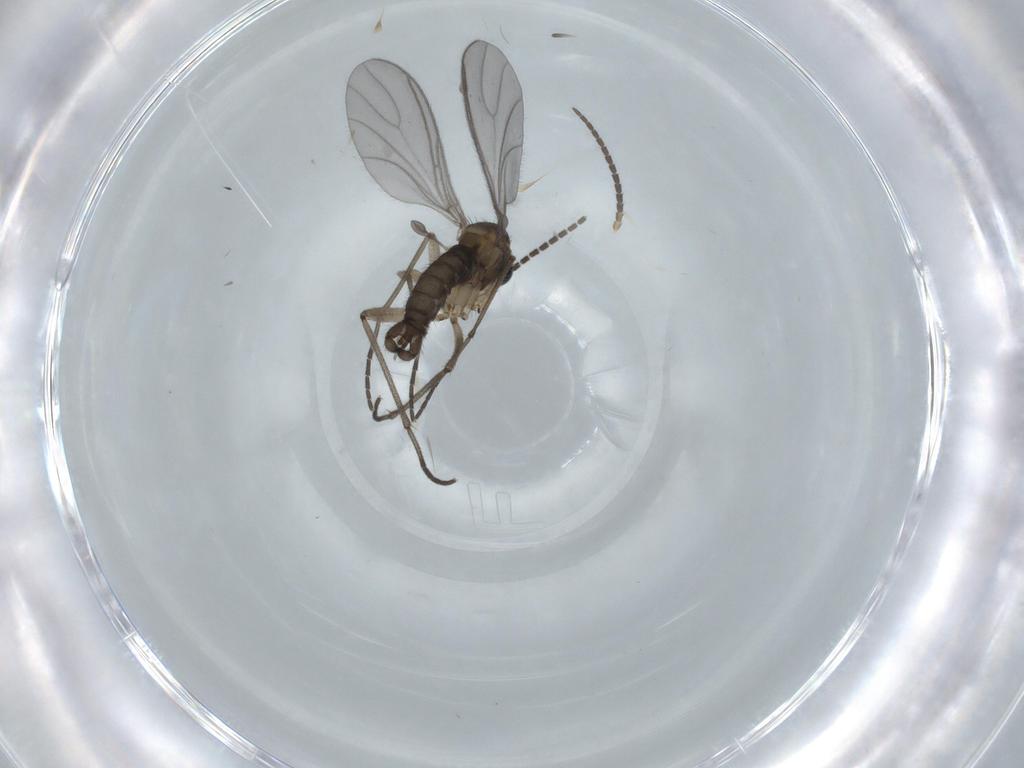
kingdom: Animalia
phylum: Arthropoda
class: Insecta
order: Diptera
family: Sciaridae
